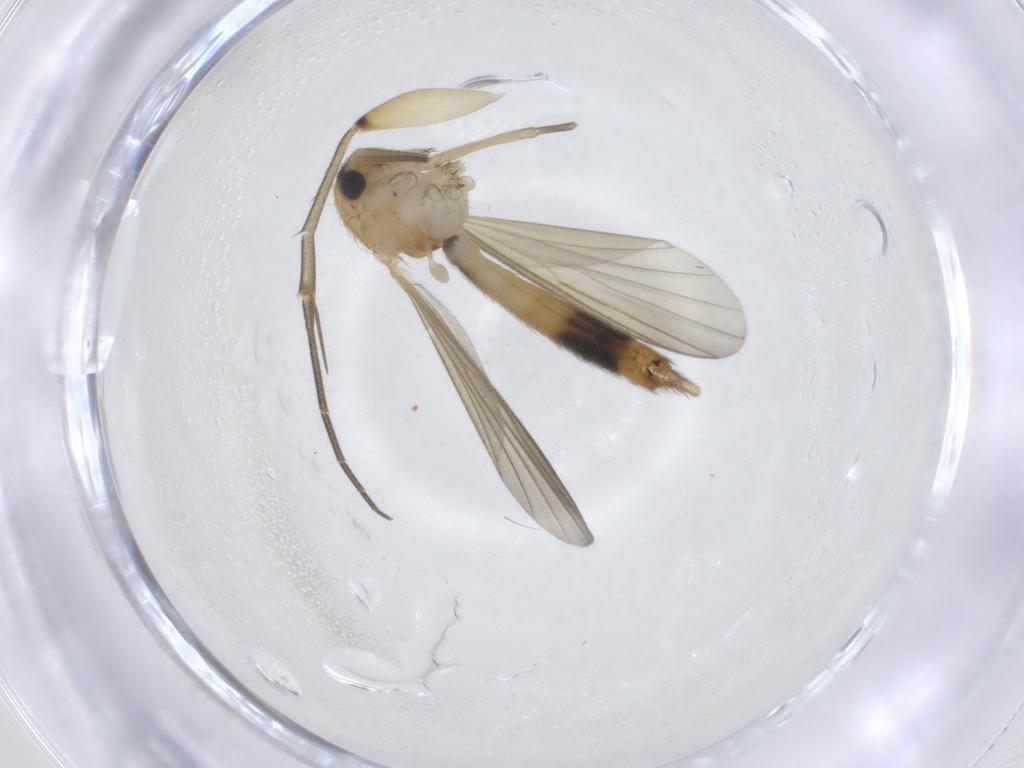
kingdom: Animalia
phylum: Arthropoda
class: Insecta
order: Diptera
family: Mycetophilidae
